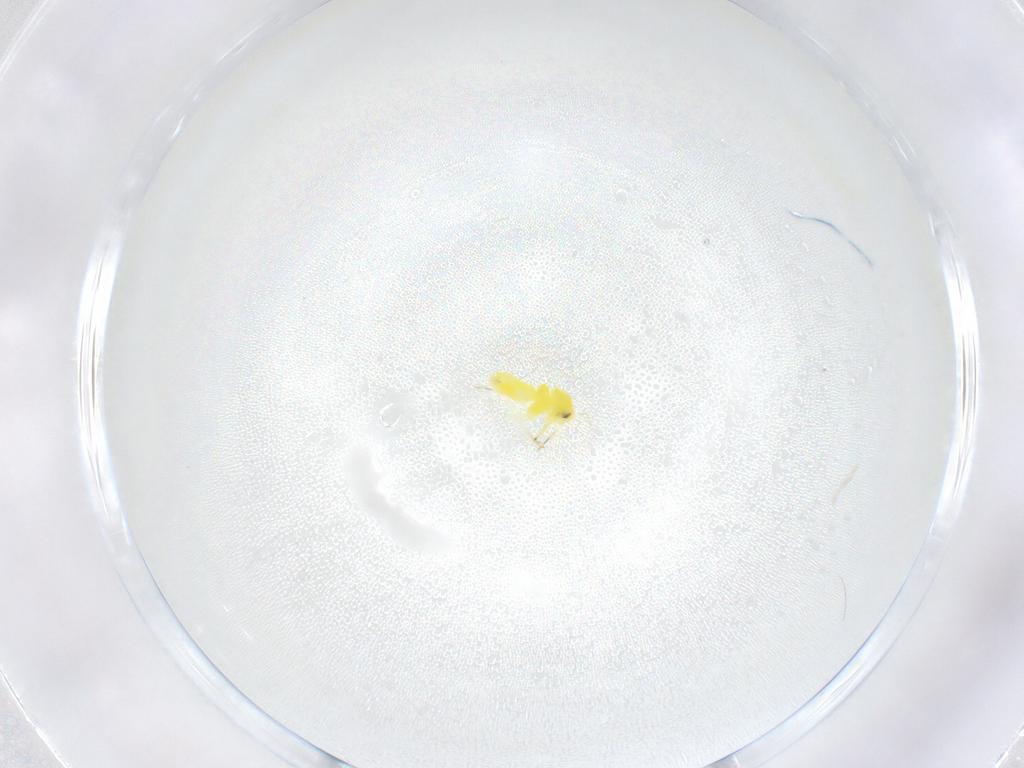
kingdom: Animalia
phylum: Arthropoda
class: Insecta
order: Hemiptera
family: Aleyrodidae
